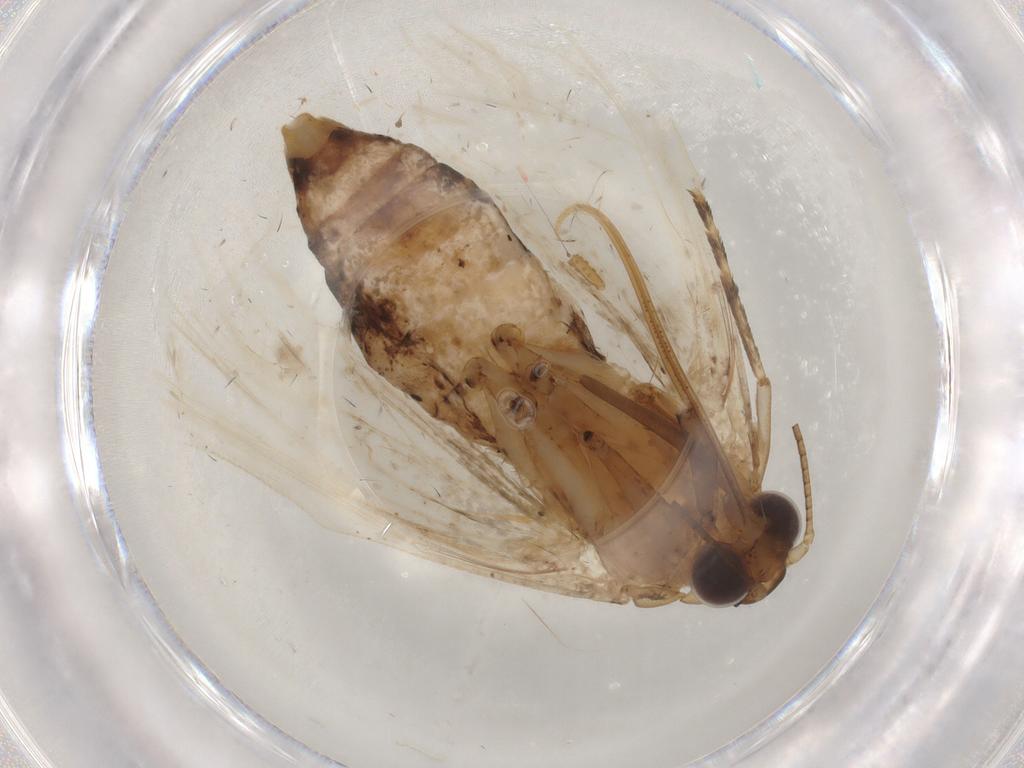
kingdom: Animalia
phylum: Arthropoda
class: Insecta
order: Lepidoptera
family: Erebidae
